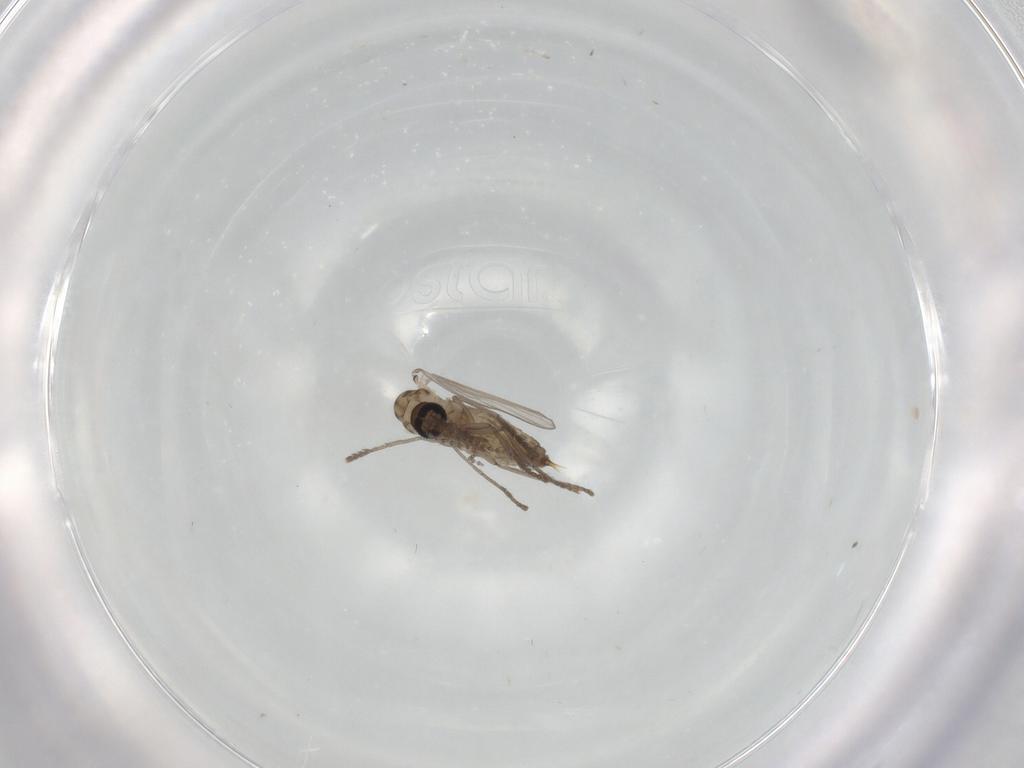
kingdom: Animalia
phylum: Arthropoda
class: Insecta
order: Diptera
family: Psychodidae
